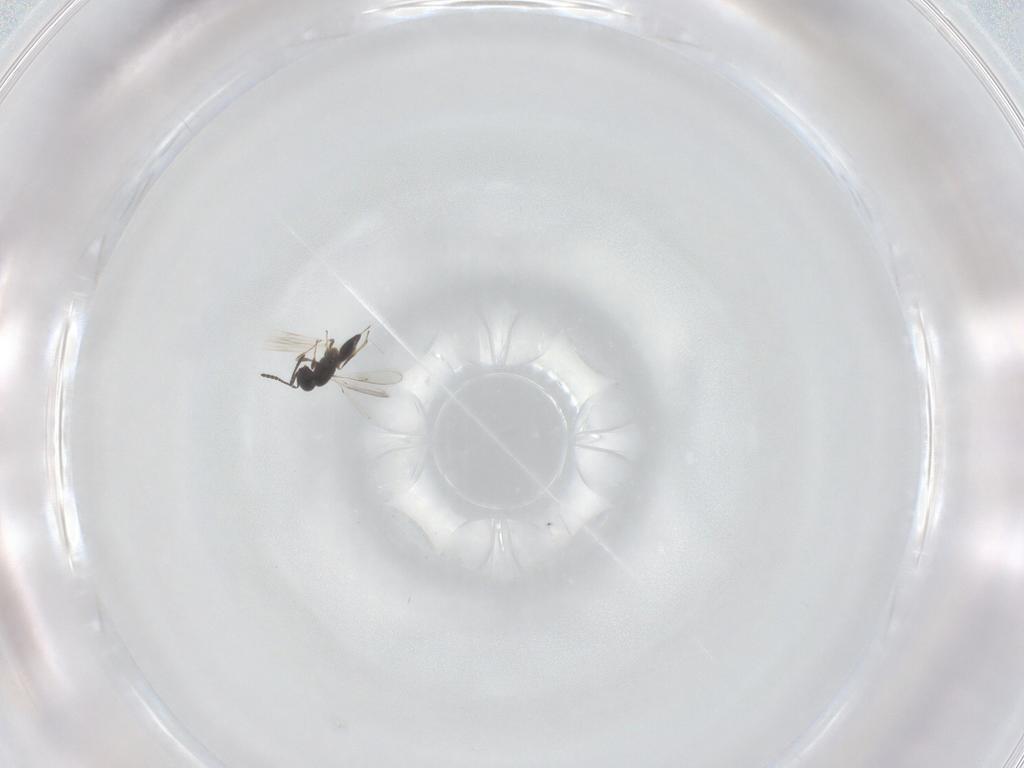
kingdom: Animalia
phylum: Arthropoda
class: Insecta
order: Hymenoptera
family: Scelionidae
